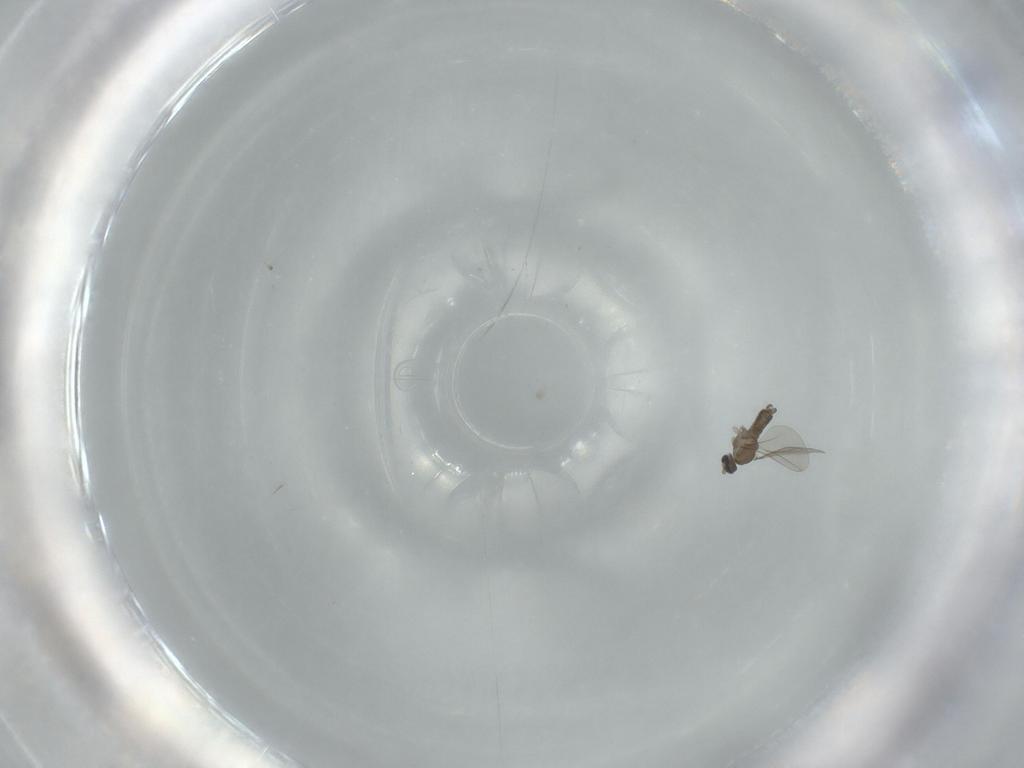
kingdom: Animalia
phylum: Arthropoda
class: Insecta
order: Diptera
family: Cecidomyiidae
